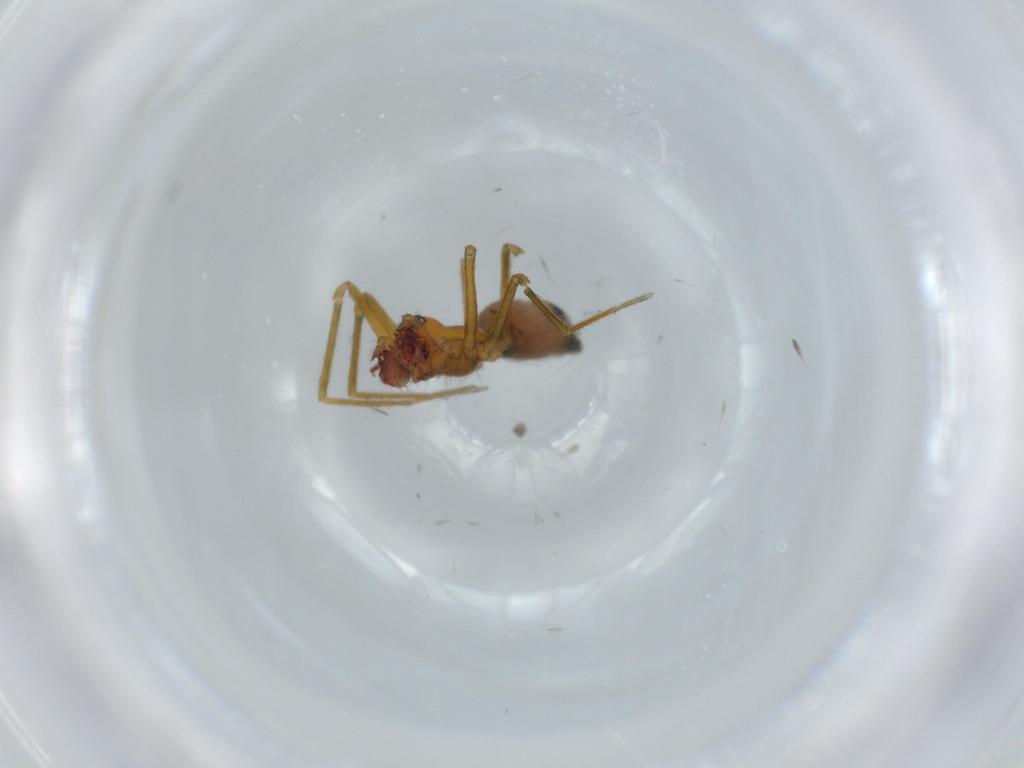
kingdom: Animalia
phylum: Arthropoda
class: Arachnida
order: Araneae
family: Linyphiidae
